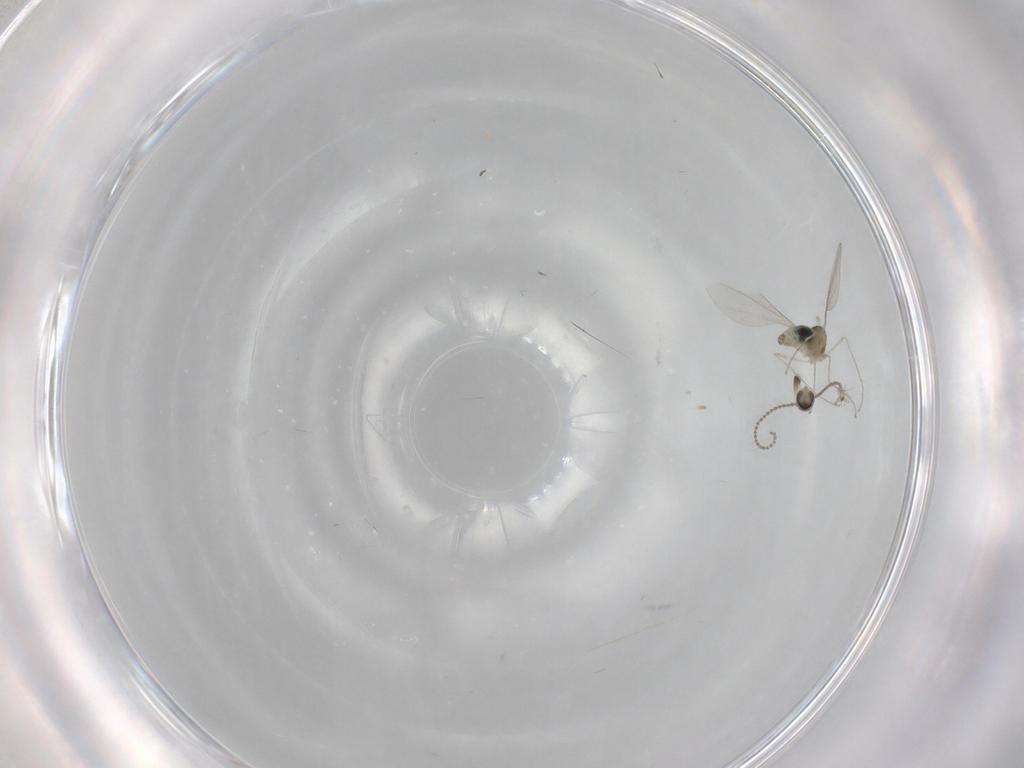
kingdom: Animalia
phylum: Arthropoda
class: Insecta
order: Diptera
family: Cecidomyiidae
